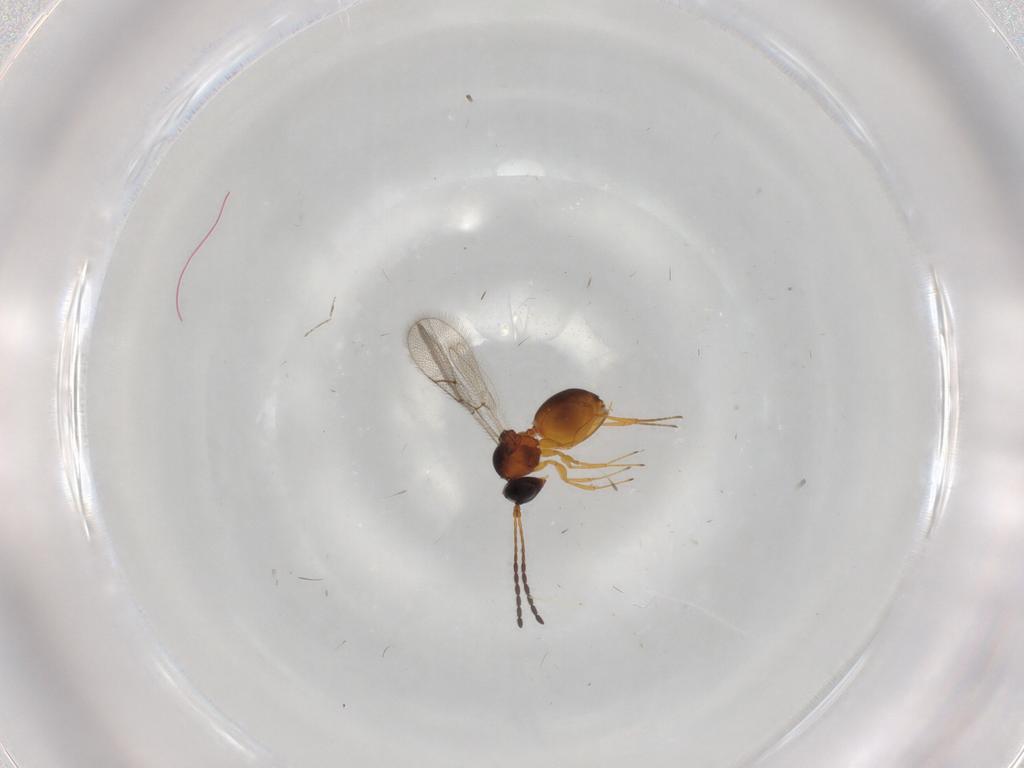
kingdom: Animalia
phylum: Arthropoda
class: Insecta
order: Hymenoptera
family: Figitidae
